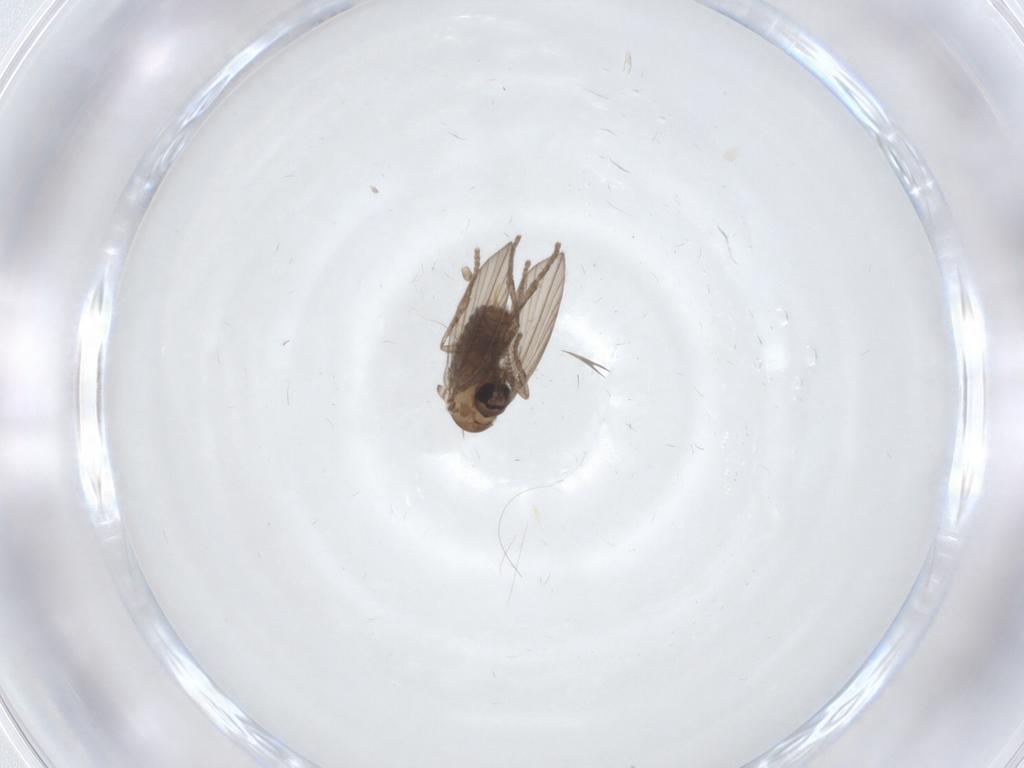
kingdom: Animalia
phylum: Arthropoda
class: Insecta
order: Diptera
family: Psychodidae
